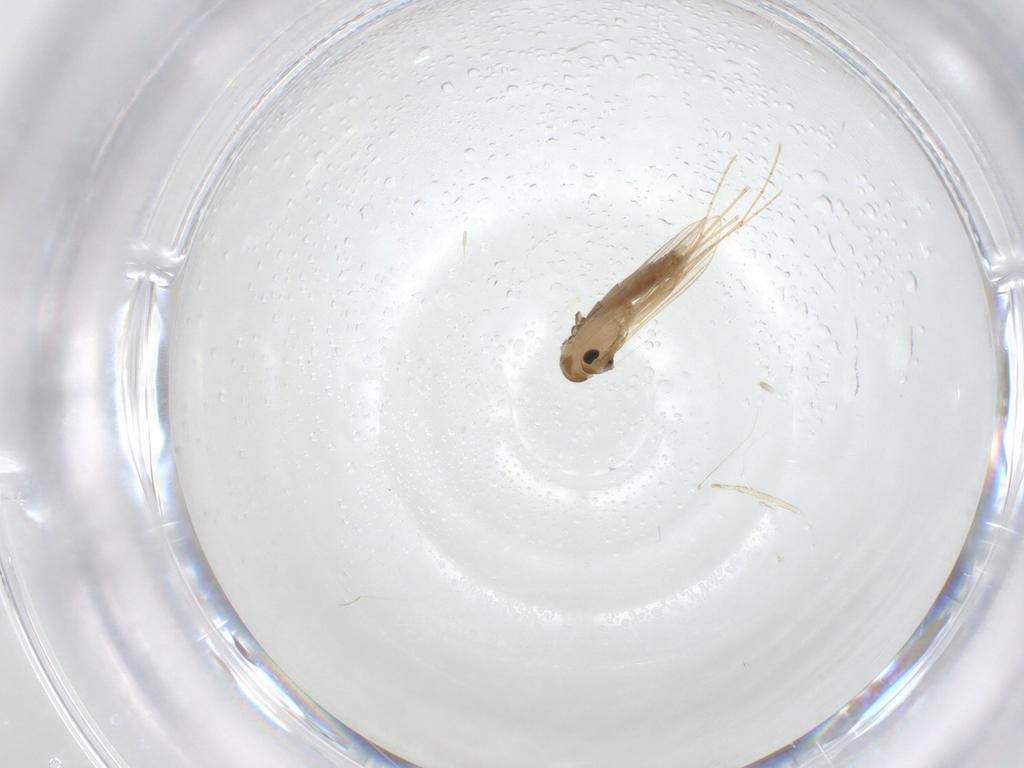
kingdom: Animalia
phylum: Arthropoda
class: Insecta
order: Diptera
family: Psychodidae
